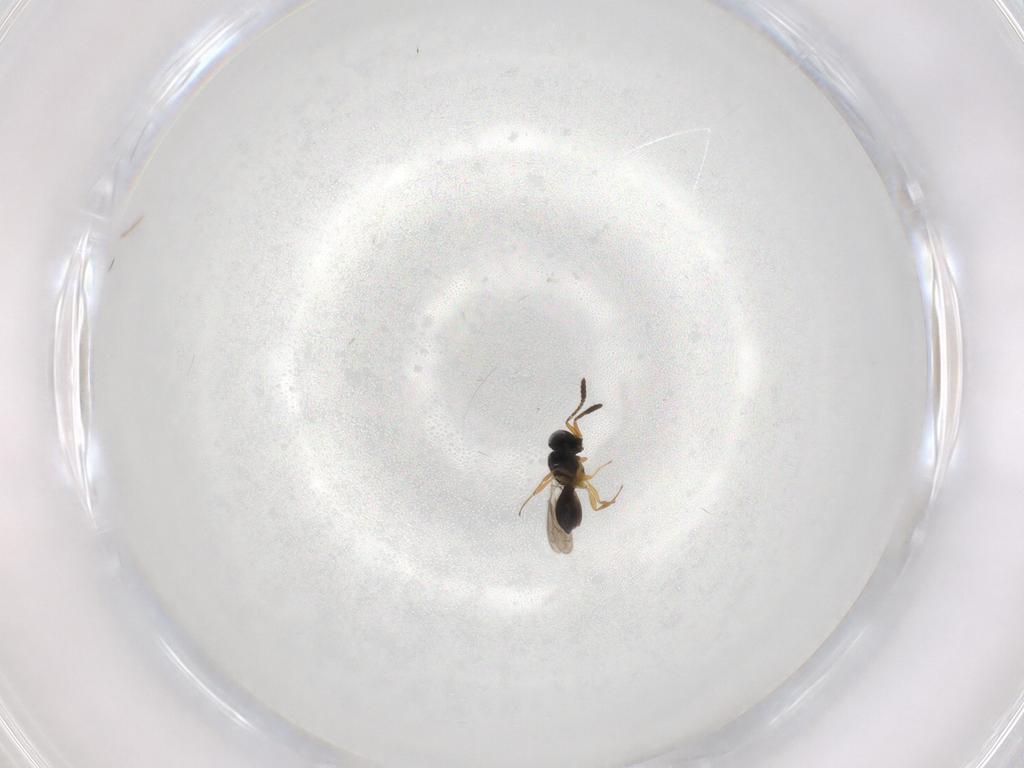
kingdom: Animalia
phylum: Arthropoda
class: Insecta
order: Hymenoptera
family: Scelionidae
